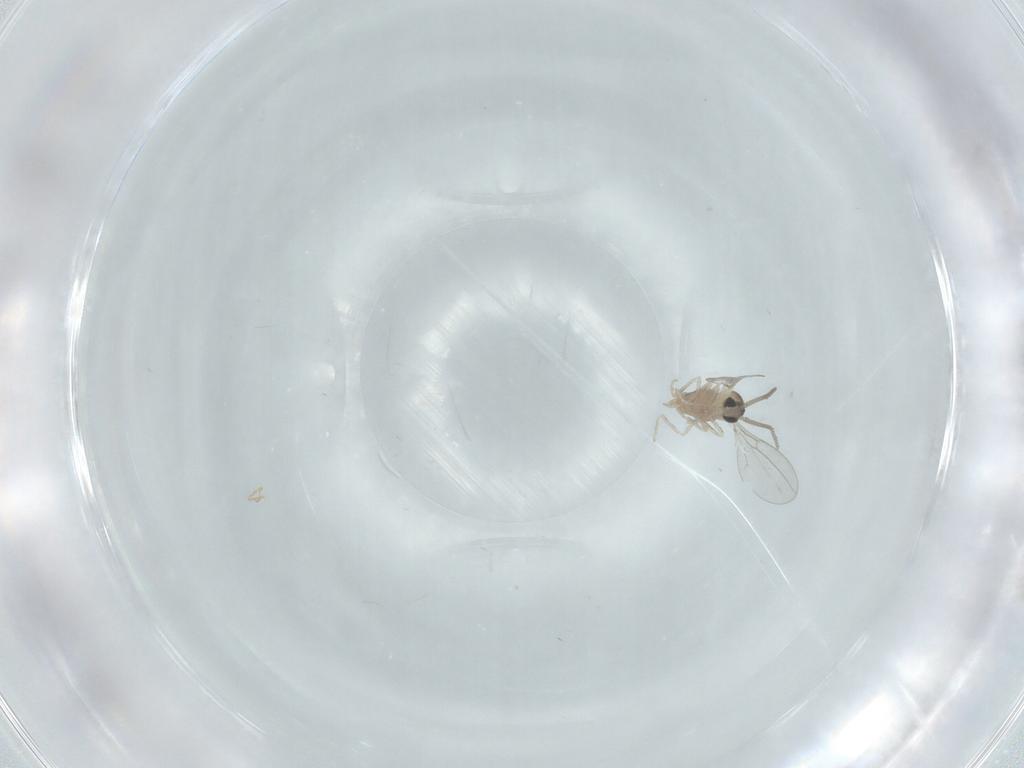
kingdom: Animalia
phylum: Arthropoda
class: Insecta
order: Diptera
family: Cecidomyiidae
